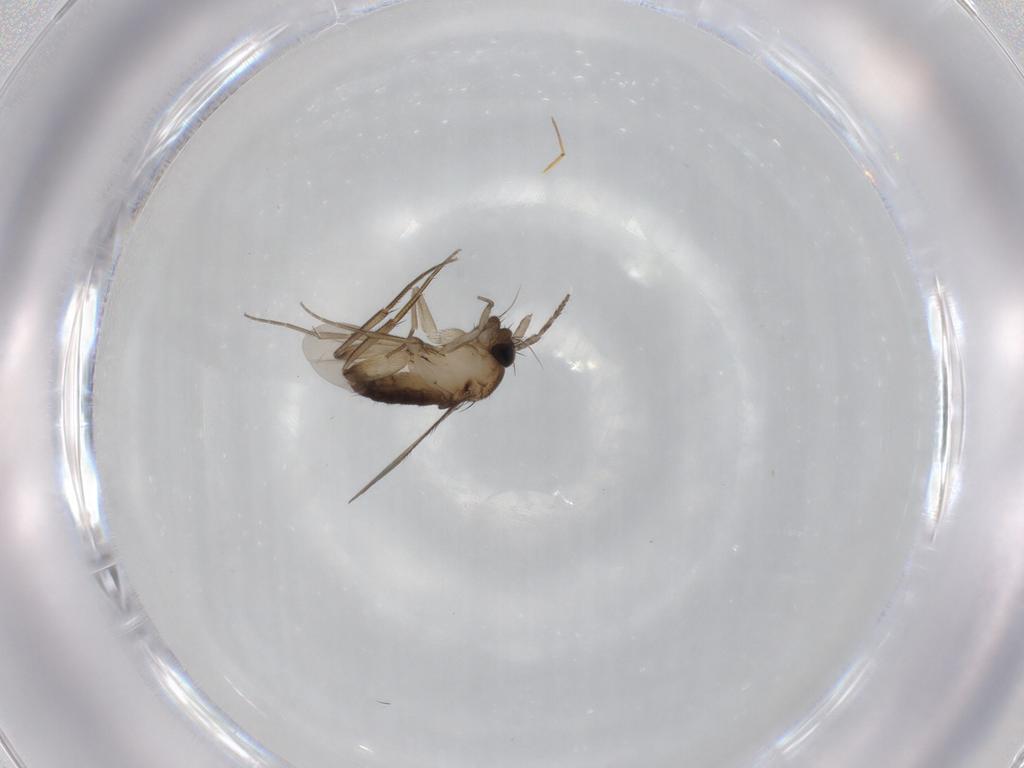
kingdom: Animalia
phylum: Arthropoda
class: Insecta
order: Diptera
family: Phoridae
